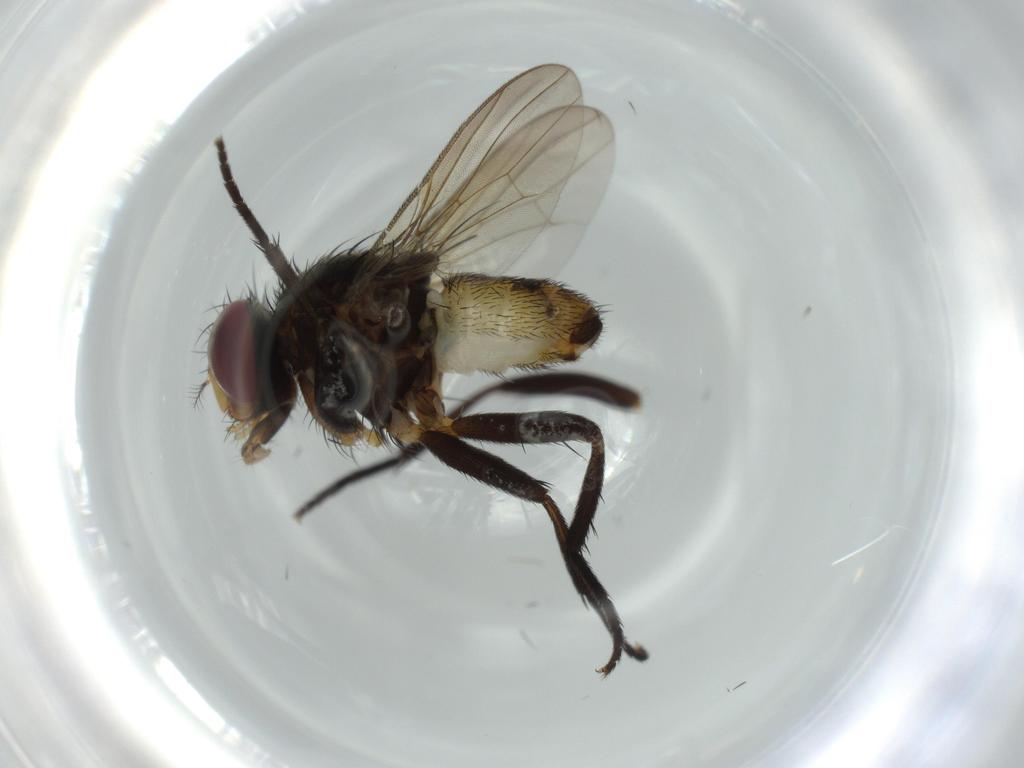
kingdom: Animalia
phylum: Arthropoda
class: Insecta
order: Diptera
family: Anthomyiidae
